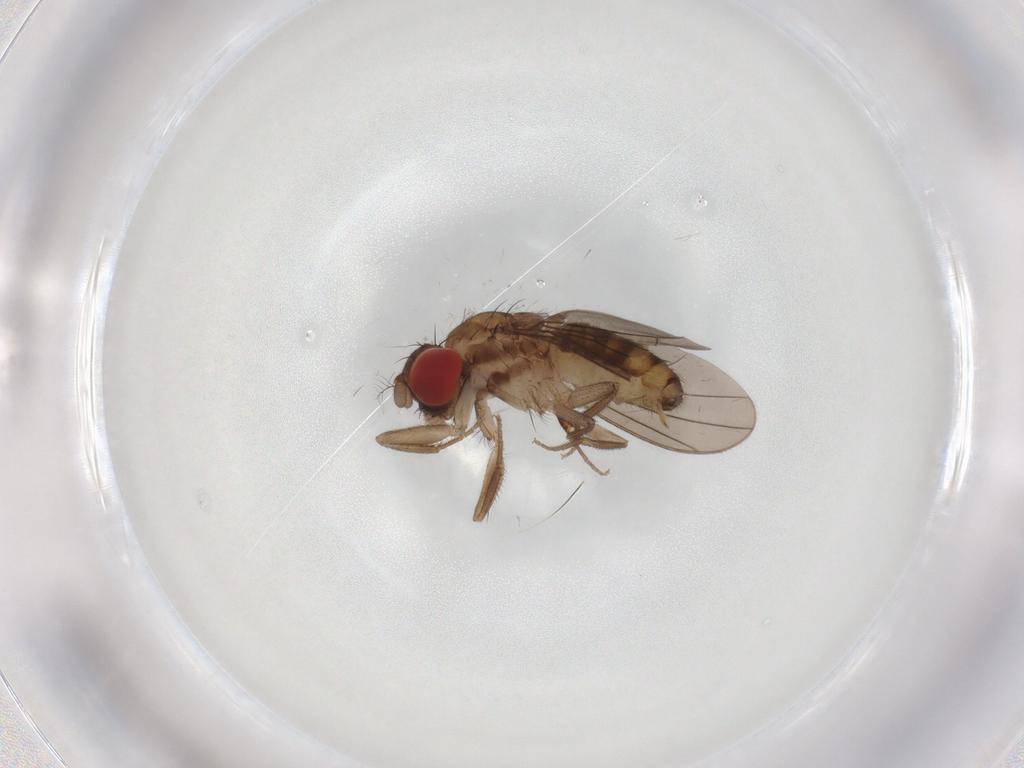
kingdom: Animalia
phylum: Arthropoda
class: Insecta
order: Diptera
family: Drosophilidae
